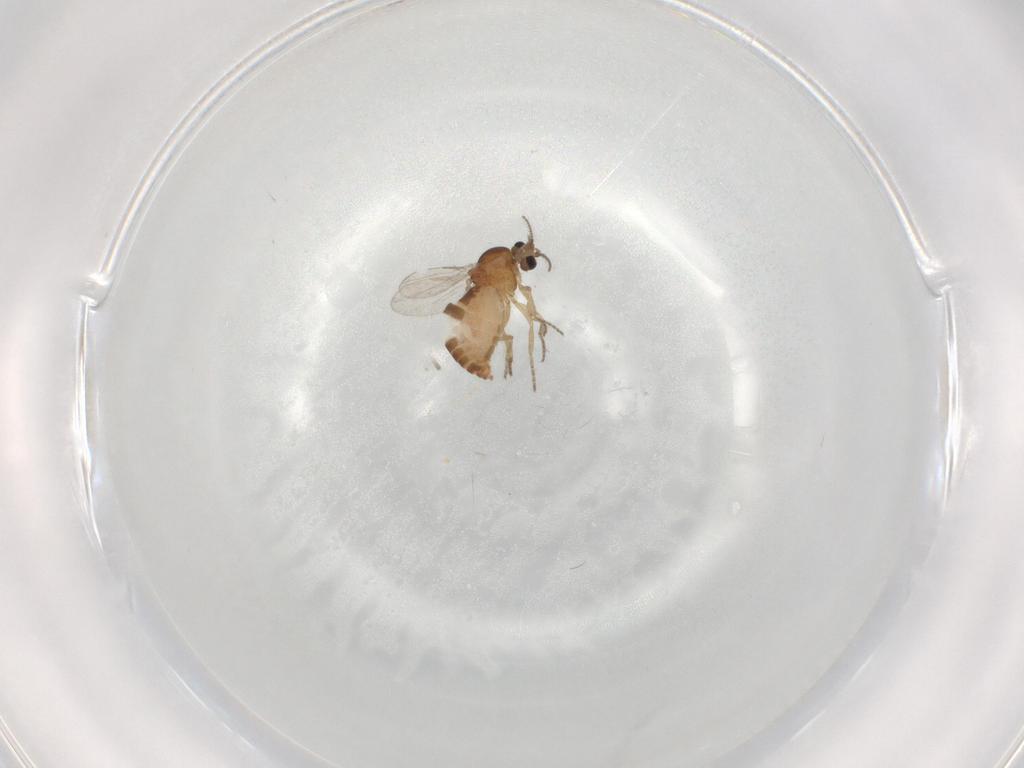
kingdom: Animalia
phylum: Arthropoda
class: Insecta
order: Diptera
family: Ceratopogonidae
